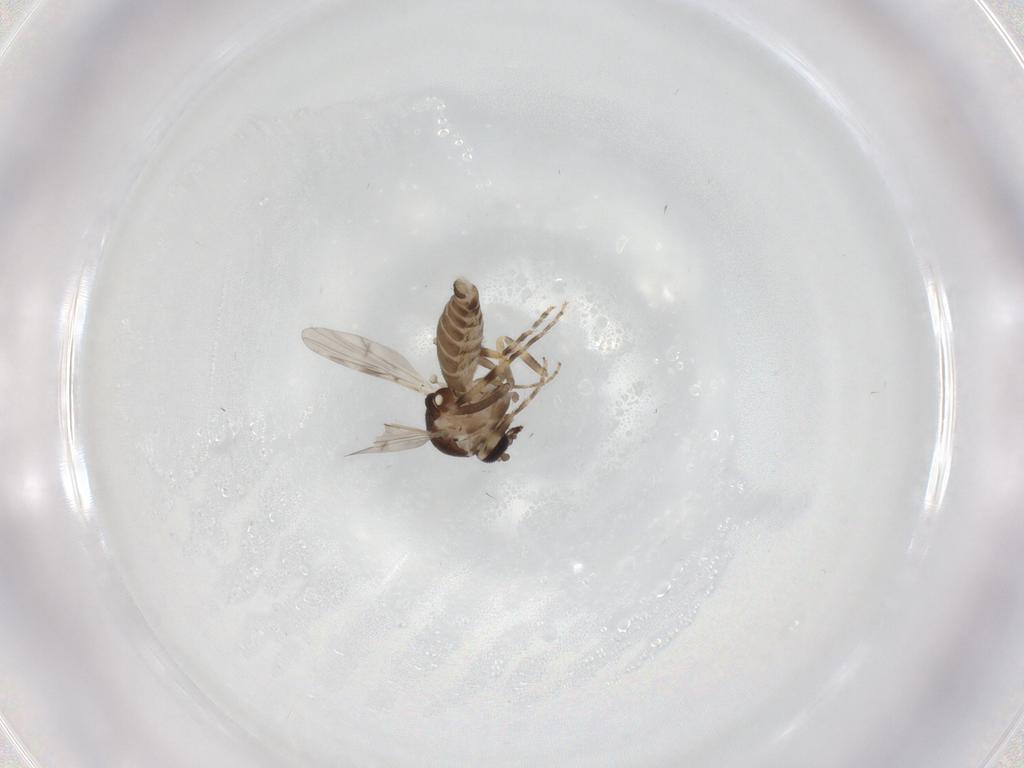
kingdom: Animalia
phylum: Arthropoda
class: Insecta
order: Diptera
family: Ceratopogonidae
